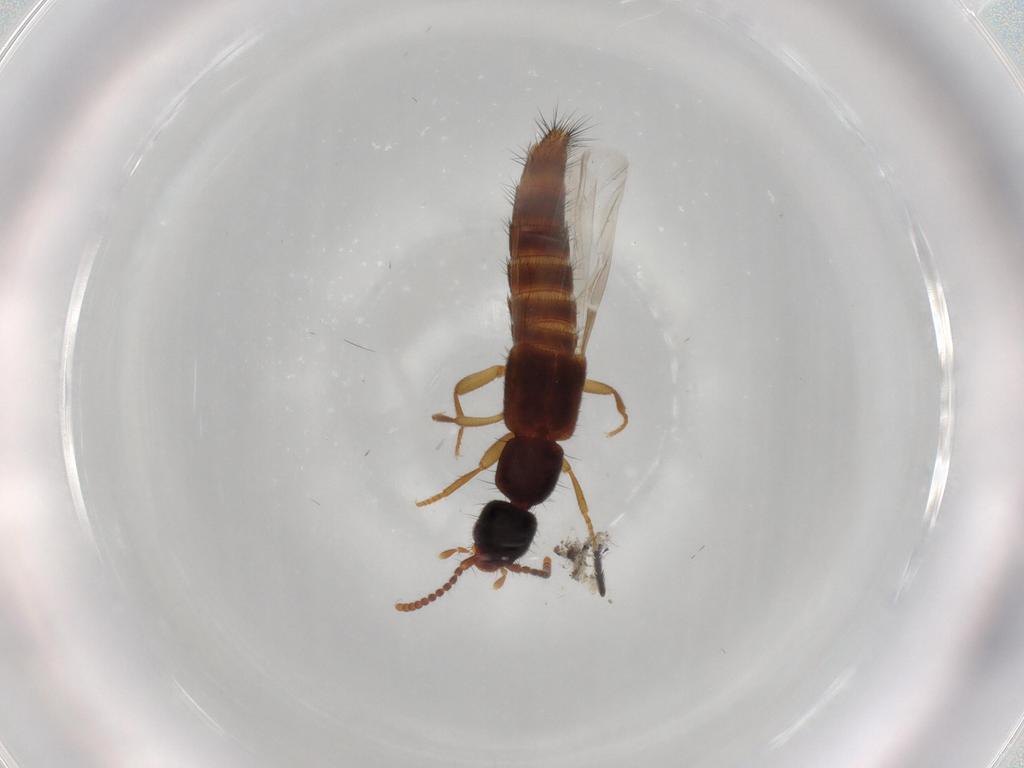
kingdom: Animalia
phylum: Arthropoda
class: Insecta
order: Coleoptera
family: Staphylinidae
